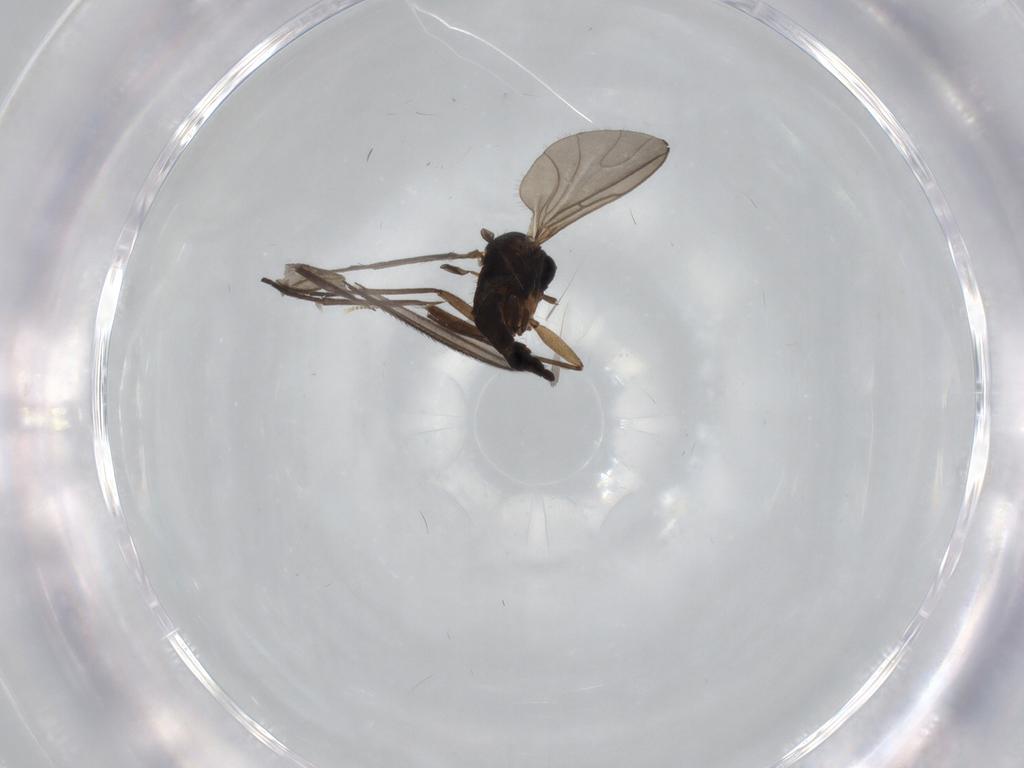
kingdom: Animalia
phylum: Arthropoda
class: Insecta
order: Diptera
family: Sciaridae
